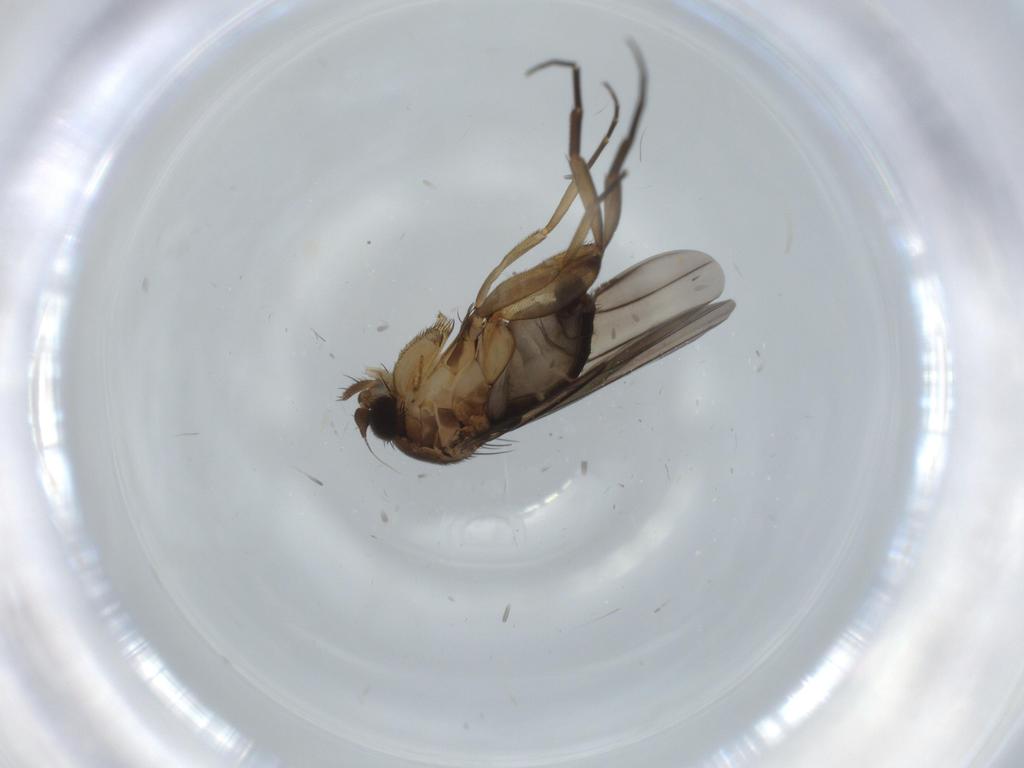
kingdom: Animalia
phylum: Arthropoda
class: Insecta
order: Diptera
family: Sciaridae
